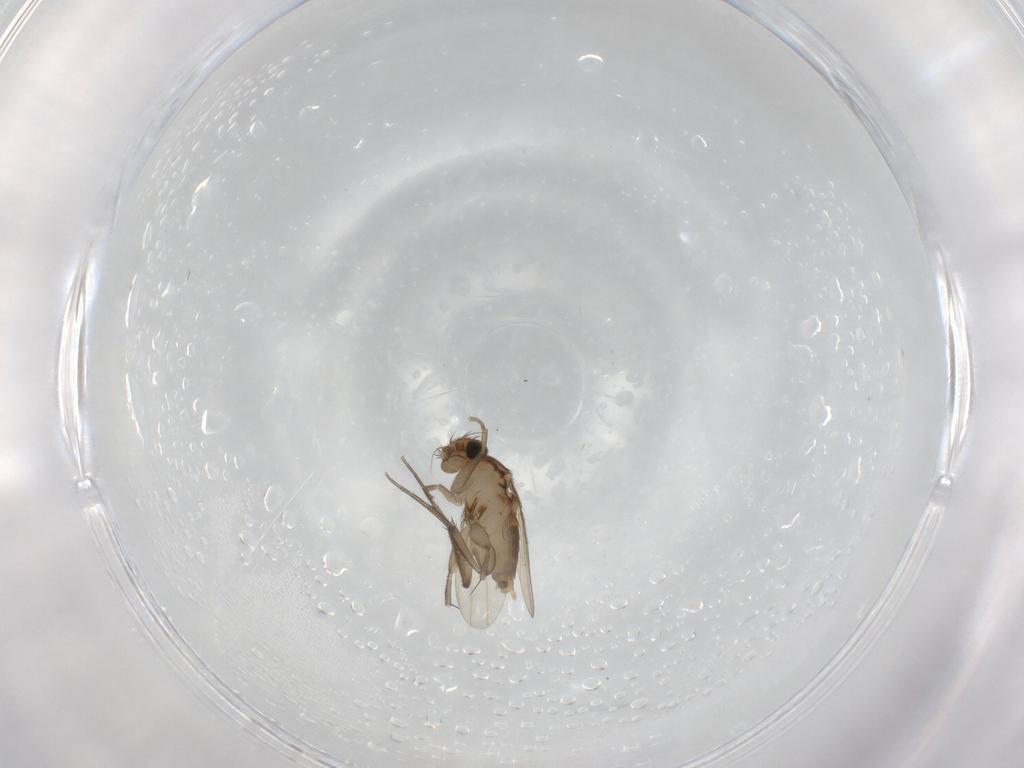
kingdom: Animalia
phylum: Arthropoda
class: Insecta
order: Diptera
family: Phoridae
